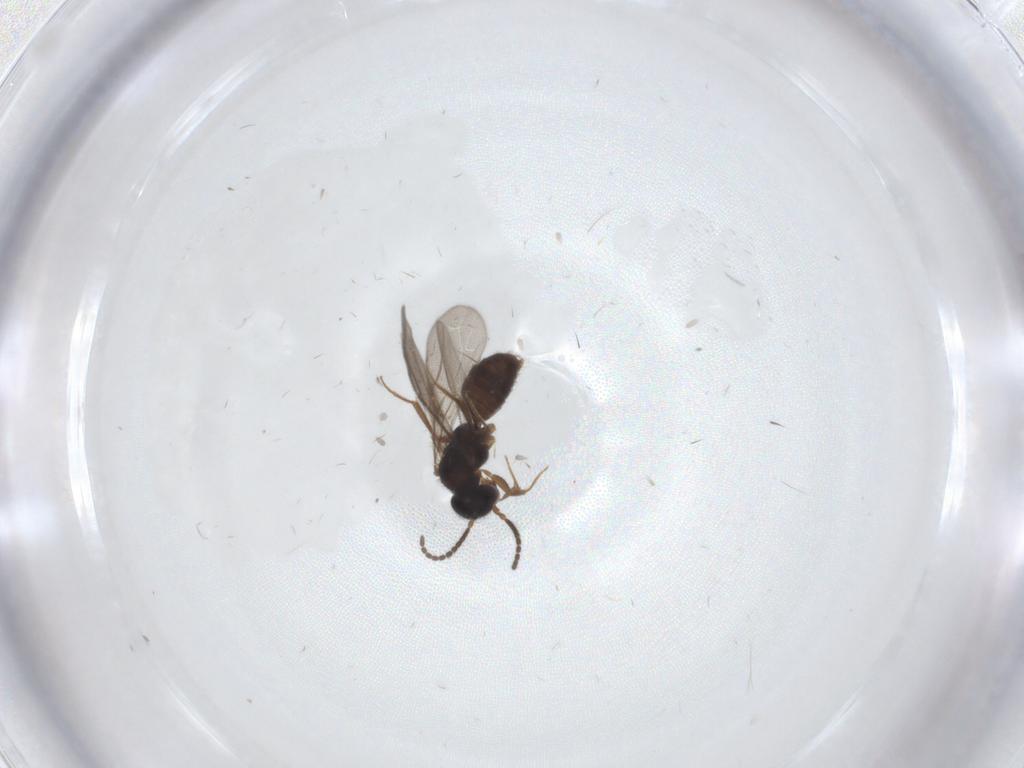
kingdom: Animalia
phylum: Arthropoda
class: Insecta
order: Hymenoptera
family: Bethylidae
